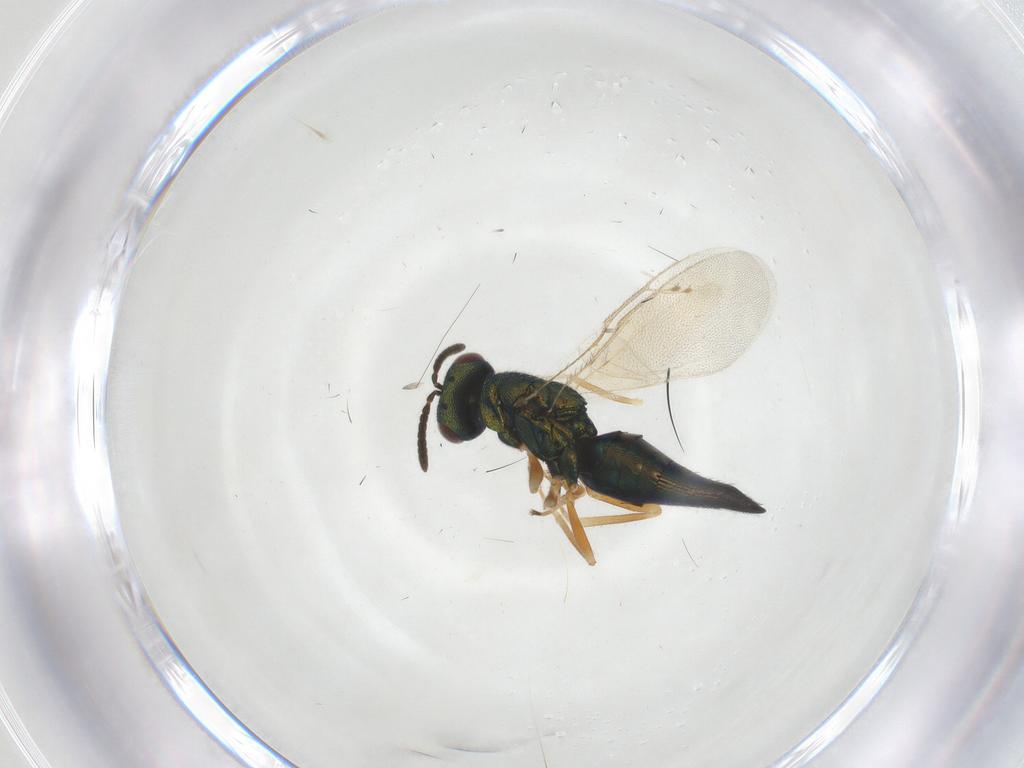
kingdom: Animalia
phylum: Arthropoda
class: Insecta
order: Hymenoptera
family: Pteromalidae
